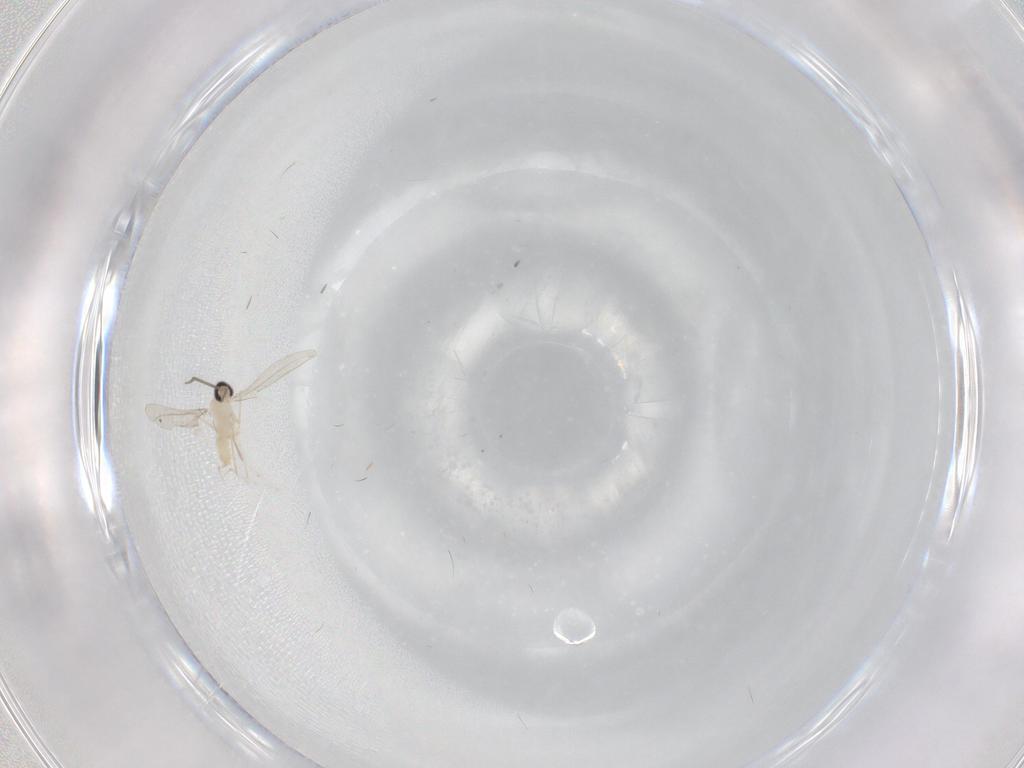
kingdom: Animalia
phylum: Arthropoda
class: Insecta
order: Diptera
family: Cecidomyiidae
